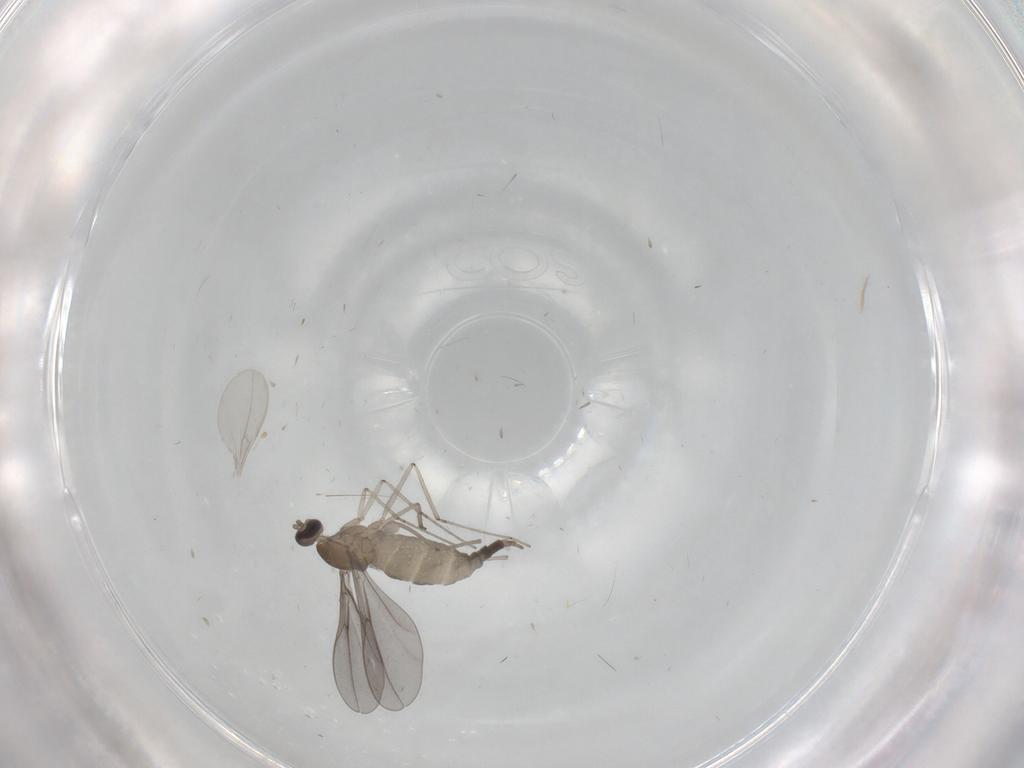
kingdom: Animalia
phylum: Arthropoda
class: Insecta
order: Diptera
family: Cecidomyiidae
